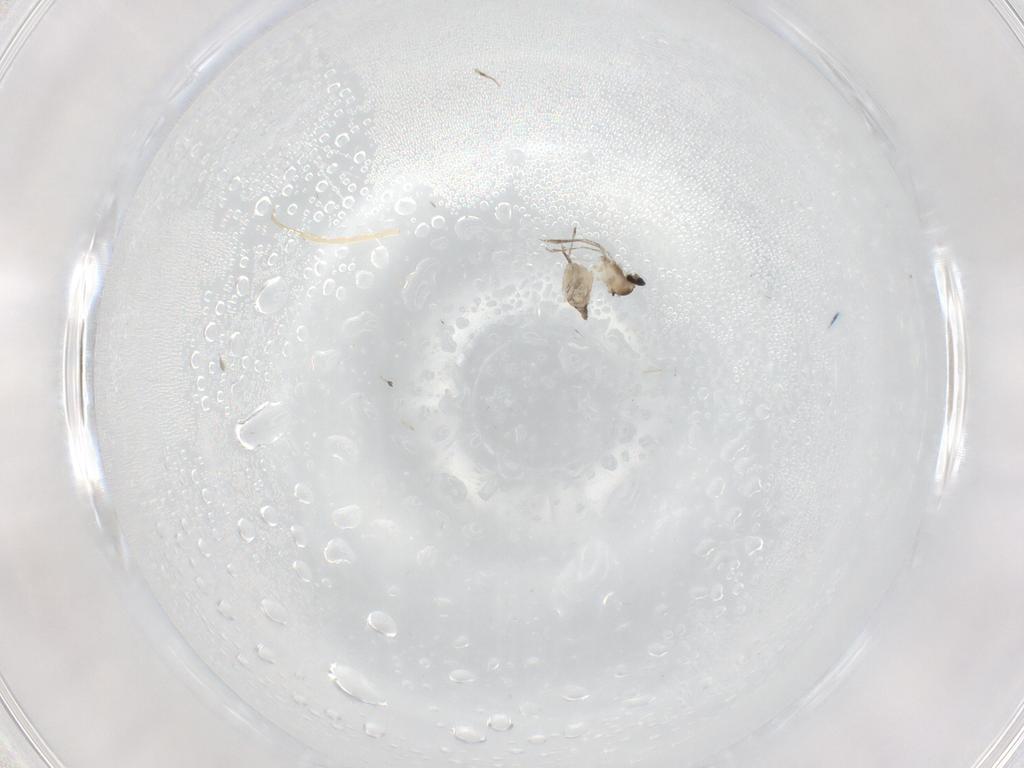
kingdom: Animalia
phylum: Arthropoda
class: Insecta
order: Diptera
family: Cecidomyiidae
